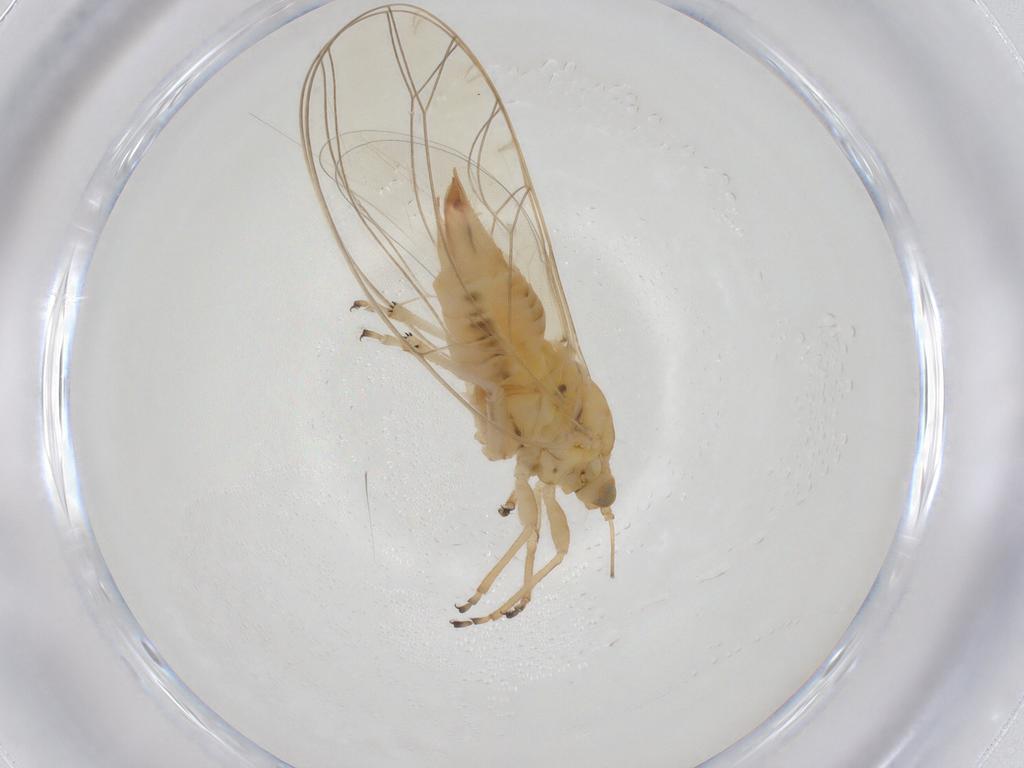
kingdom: Animalia
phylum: Arthropoda
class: Insecta
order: Hemiptera
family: Triozidae
